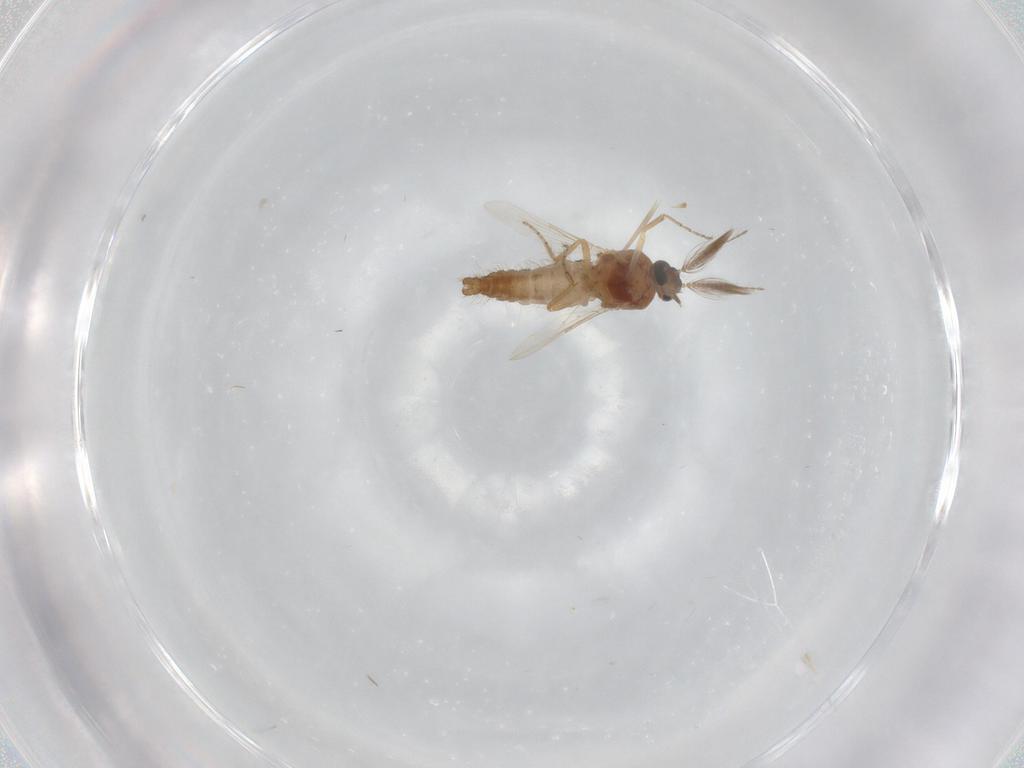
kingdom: Animalia
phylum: Arthropoda
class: Insecta
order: Diptera
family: Ceratopogonidae
